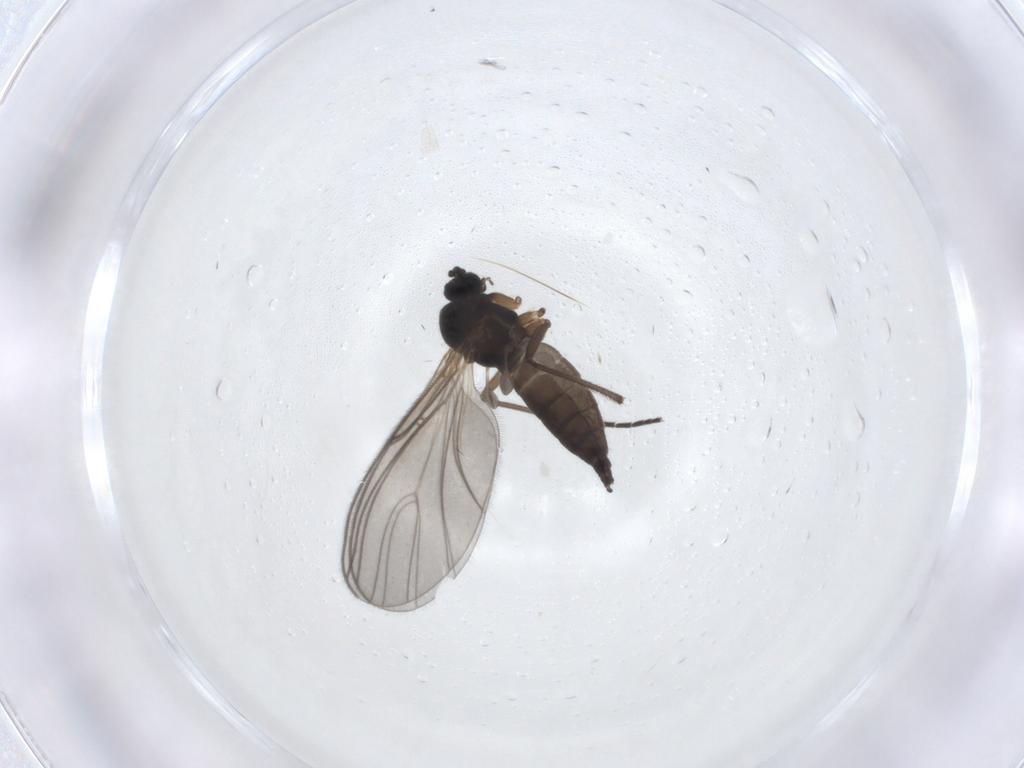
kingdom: Animalia
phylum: Arthropoda
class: Insecta
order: Diptera
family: Sciaridae
